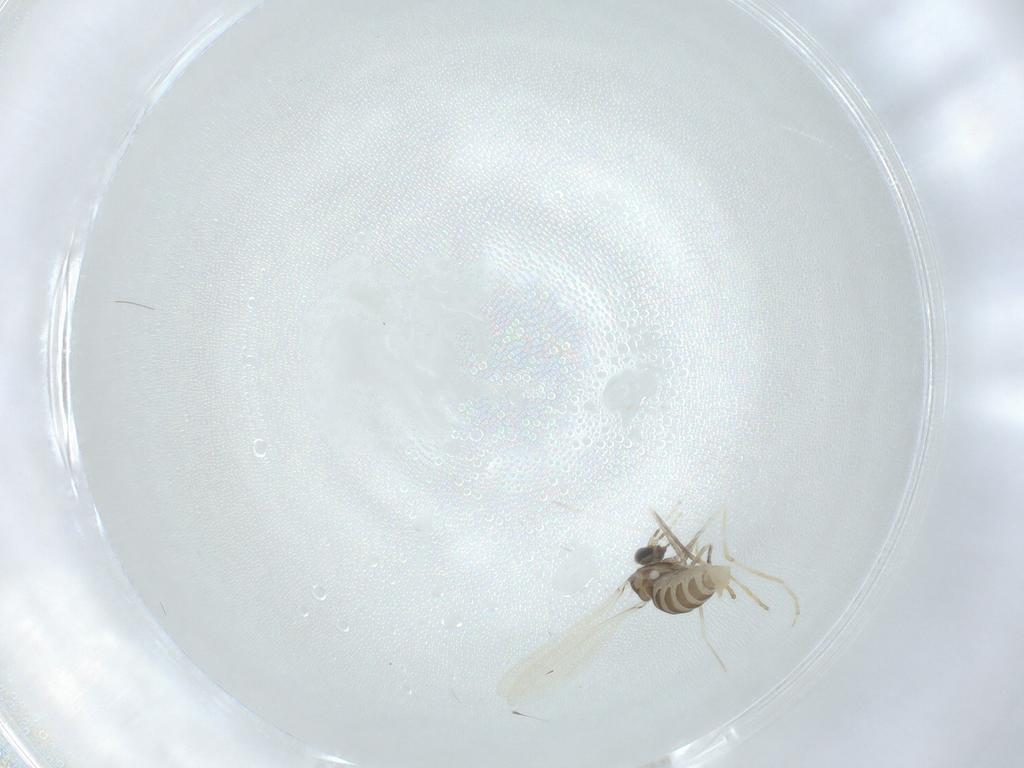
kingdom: Animalia
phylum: Arthropoda
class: Insecta
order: Diptera
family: Cecidomyiidae
